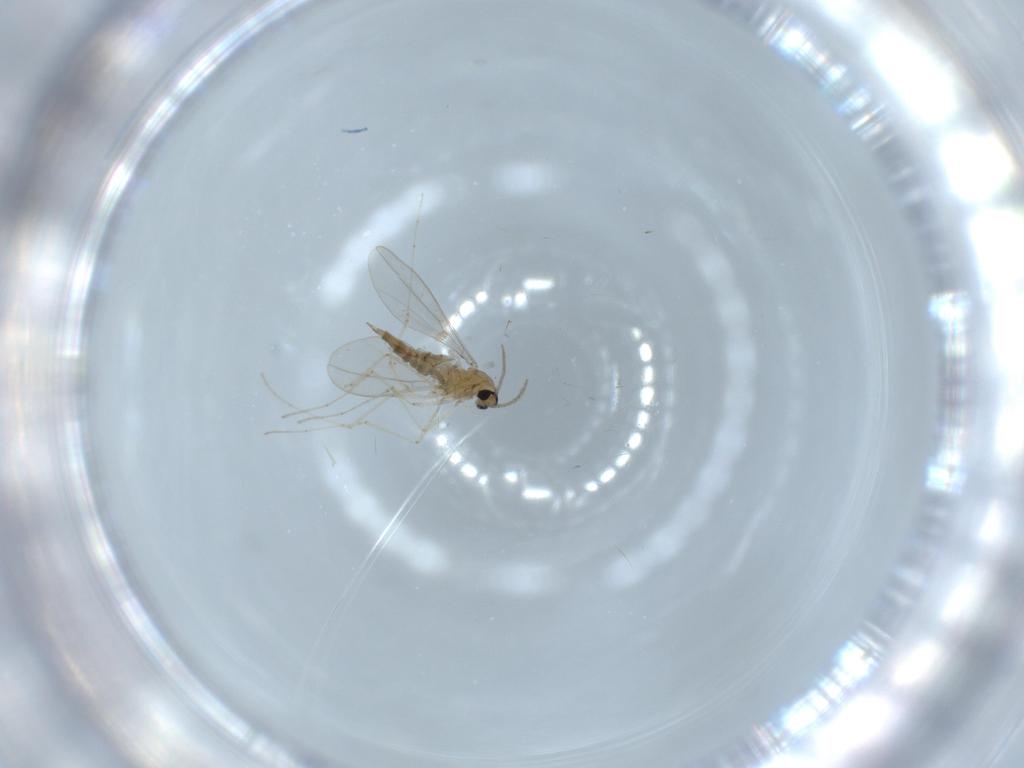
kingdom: Animalia
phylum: Arthropoda
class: Insecta
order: Diptera
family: Cecidomyiidae
